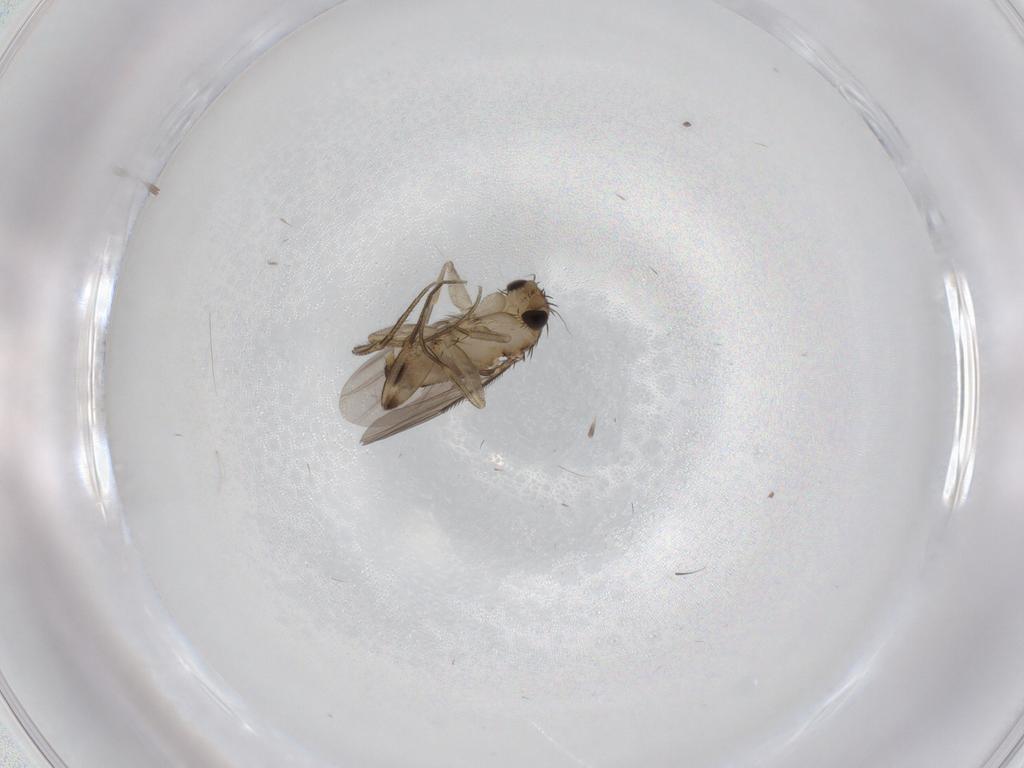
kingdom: Animalia
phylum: Arthropoda
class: Insecta
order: Diptera
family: Phoridae
